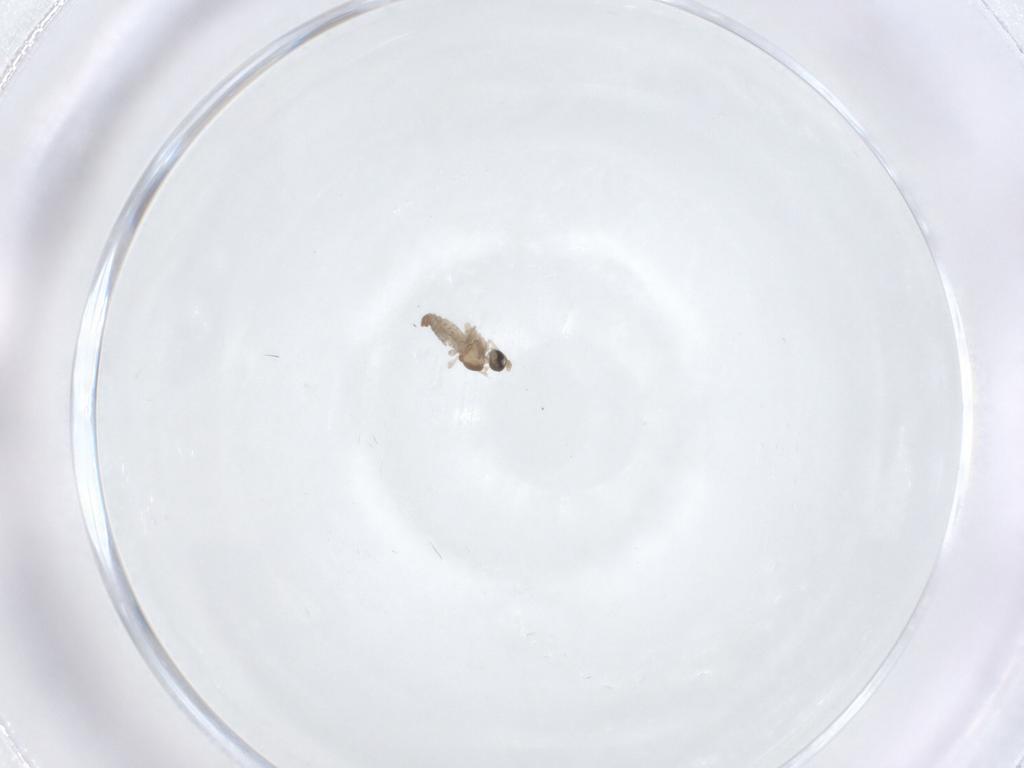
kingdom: Animalia
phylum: Arthropoda
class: Insecta
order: Diptera
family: Cecidomyiidae
